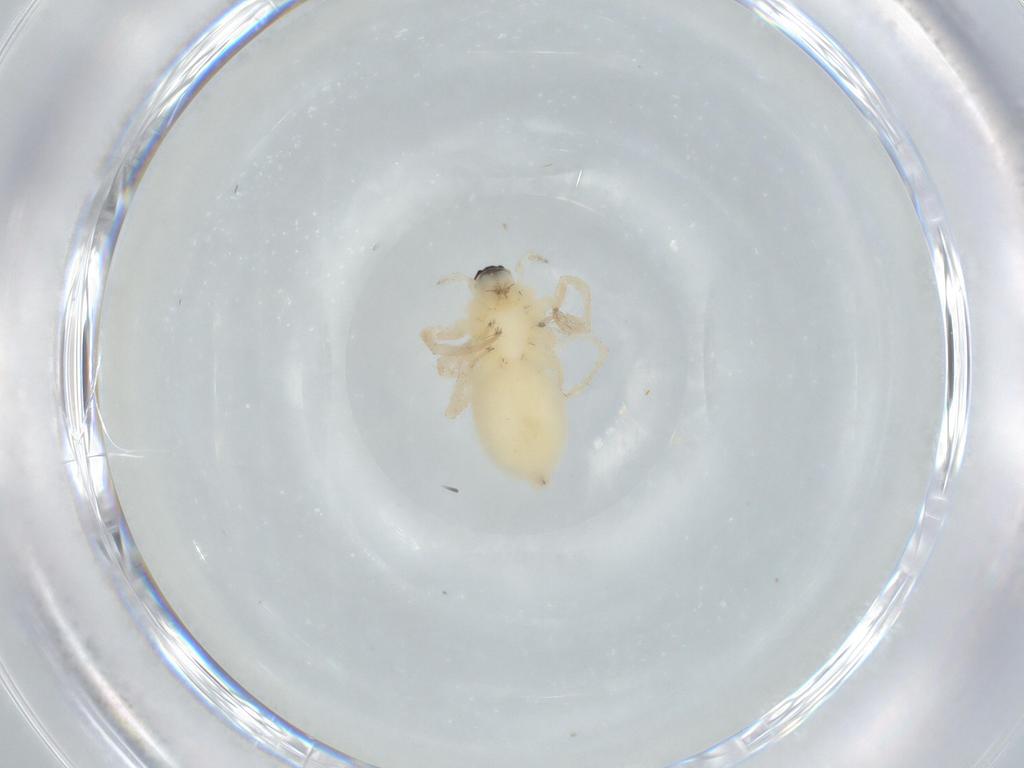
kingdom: Animalia
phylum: Arthropoda
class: Arachnida
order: Araneae
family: Anyphaenidae
